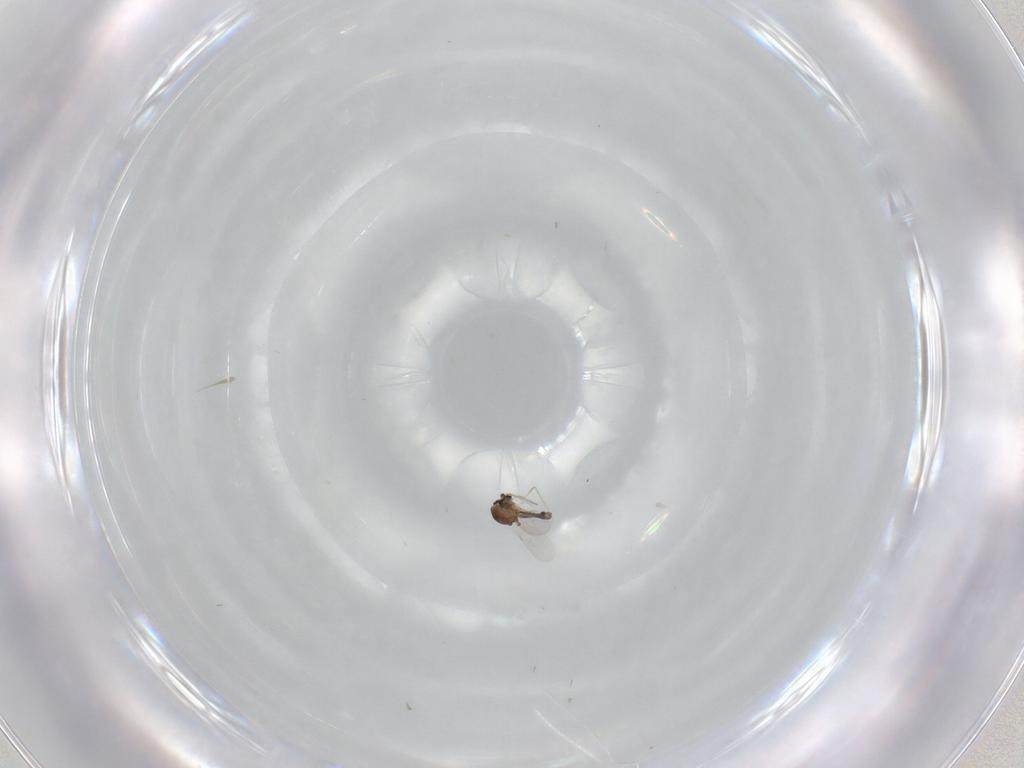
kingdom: Animalia
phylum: Arthropoda
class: Insecta
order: Diptera
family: Ceratopogonidae
